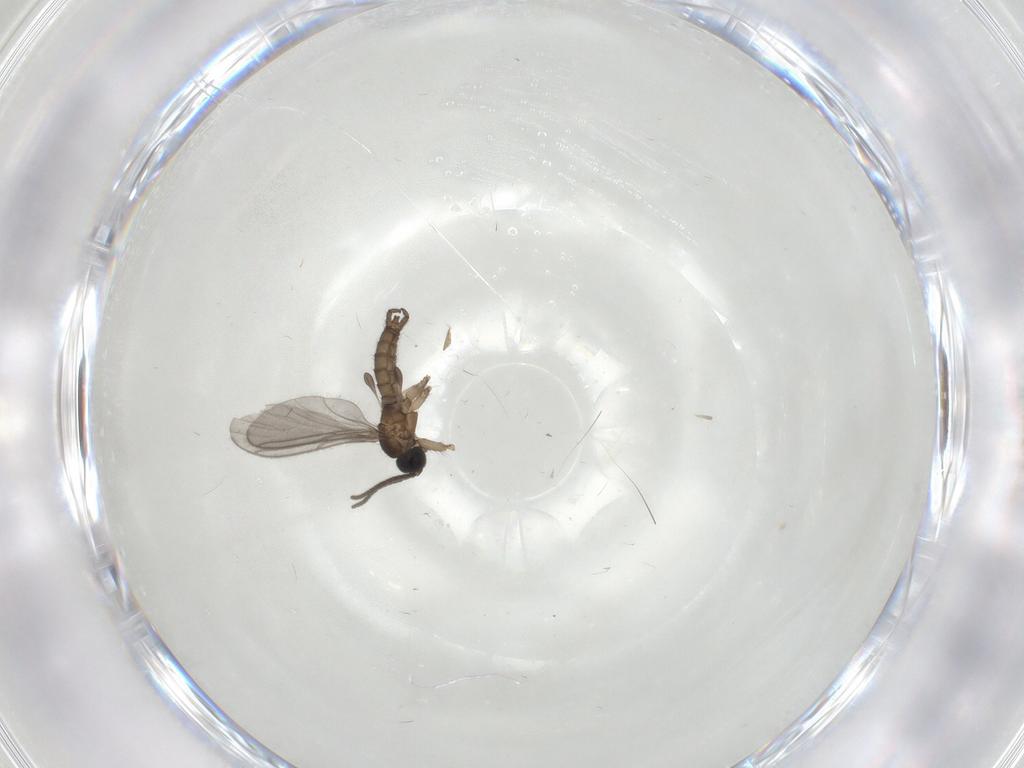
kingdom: Animalia
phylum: Arthropoda
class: Insecta
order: Diptera
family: Sciaridae
